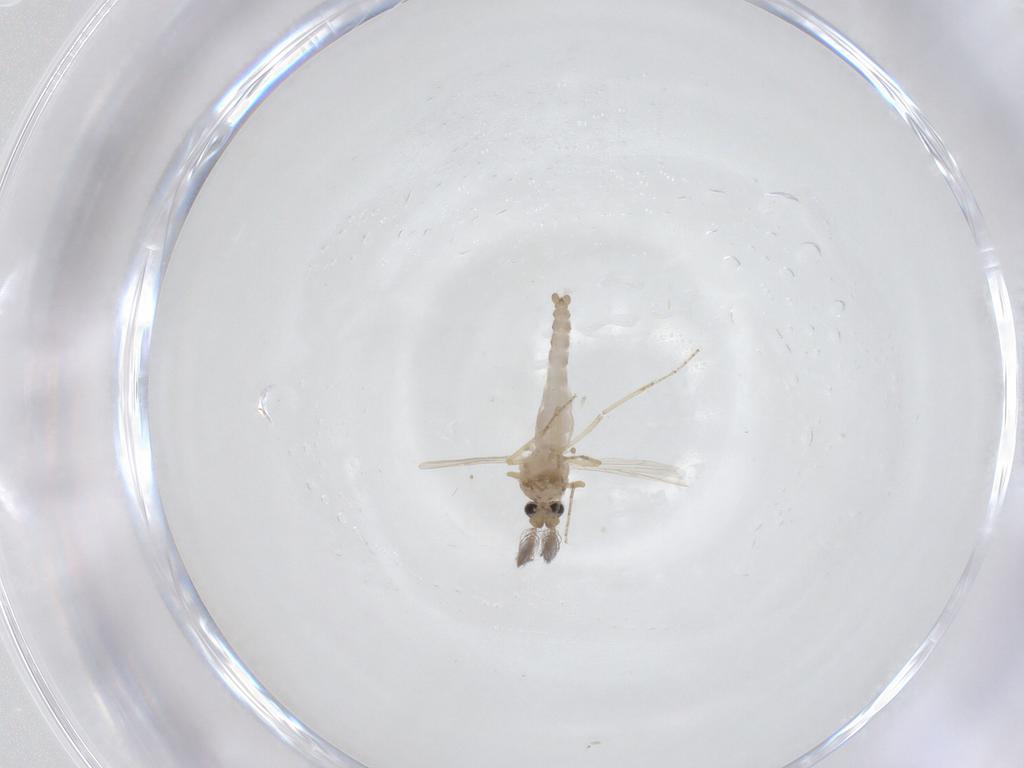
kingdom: Animalia
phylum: Arthropoda
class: Insecta
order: Diptera
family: Ceratopogonidae
